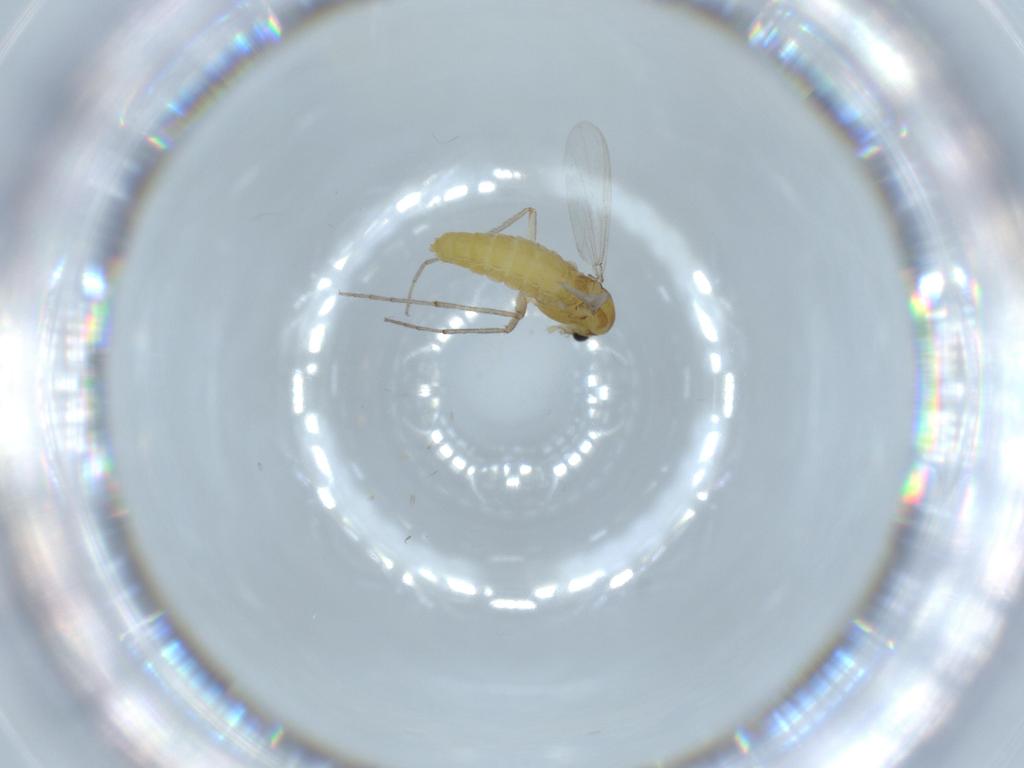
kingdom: Animalia
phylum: Arthropoda
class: Insecta
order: Diptera
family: Chironomidae
